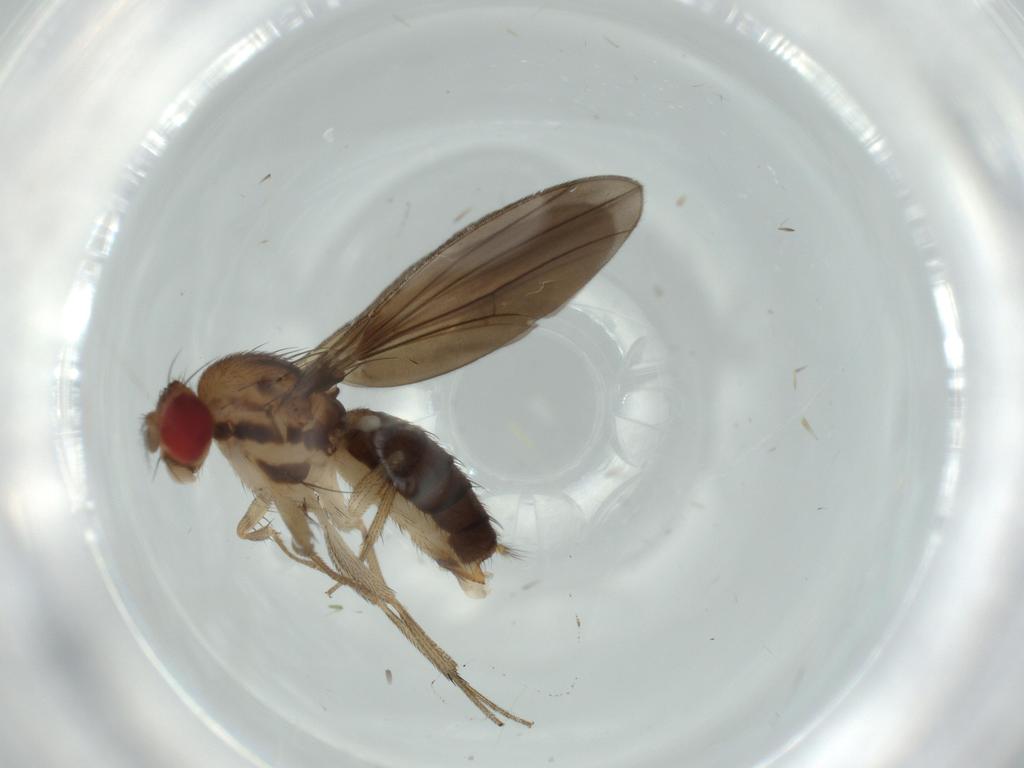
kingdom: Animalia
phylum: Arthropoda
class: Insecta
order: Diptera
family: Drosophilidae
